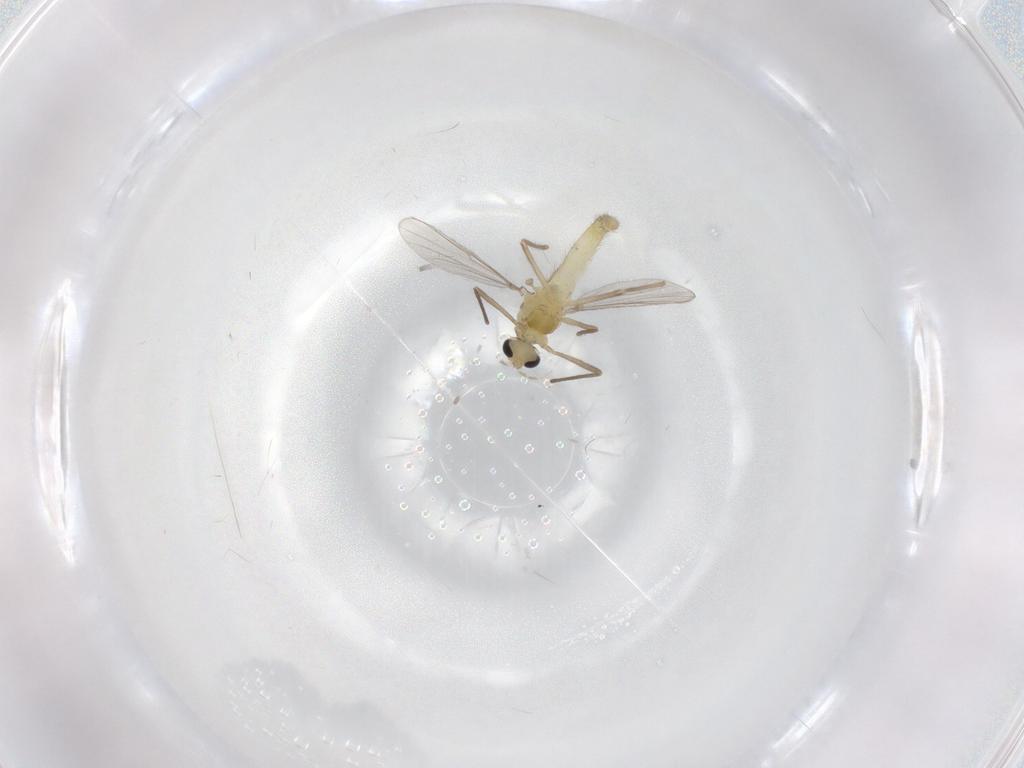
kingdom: Animalia
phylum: Arthropoda
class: Insecta
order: Diptera
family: Chironomidae
